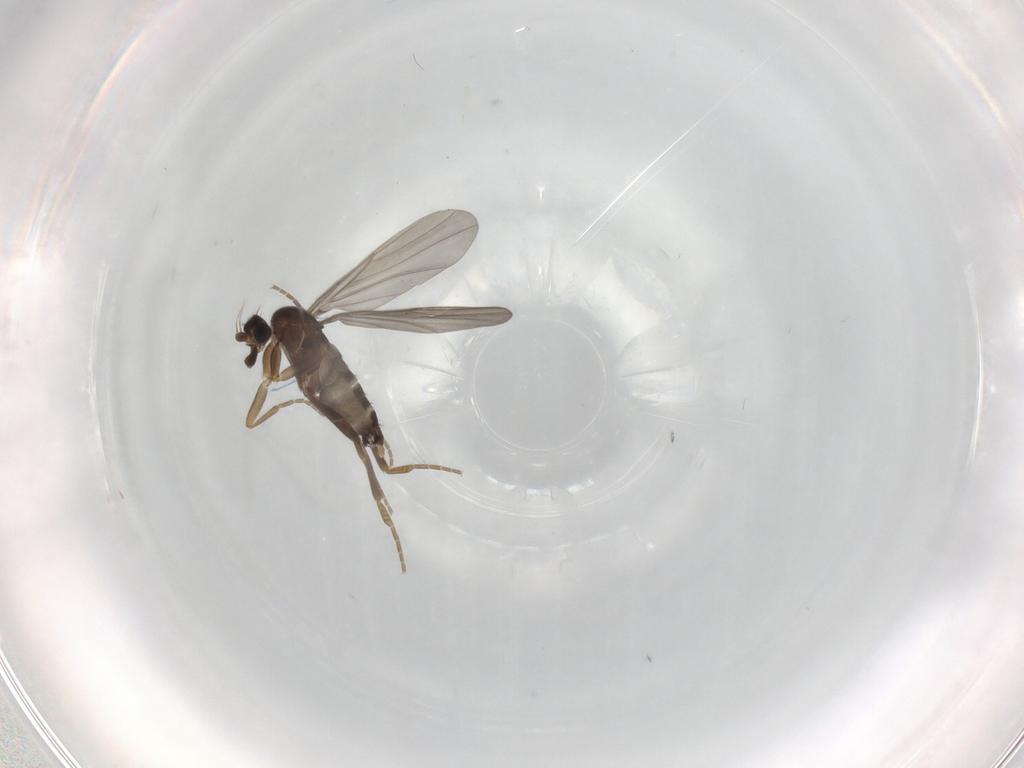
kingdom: Animalia
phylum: Arthropoda
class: Insecta
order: Diptera
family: Phoridae
